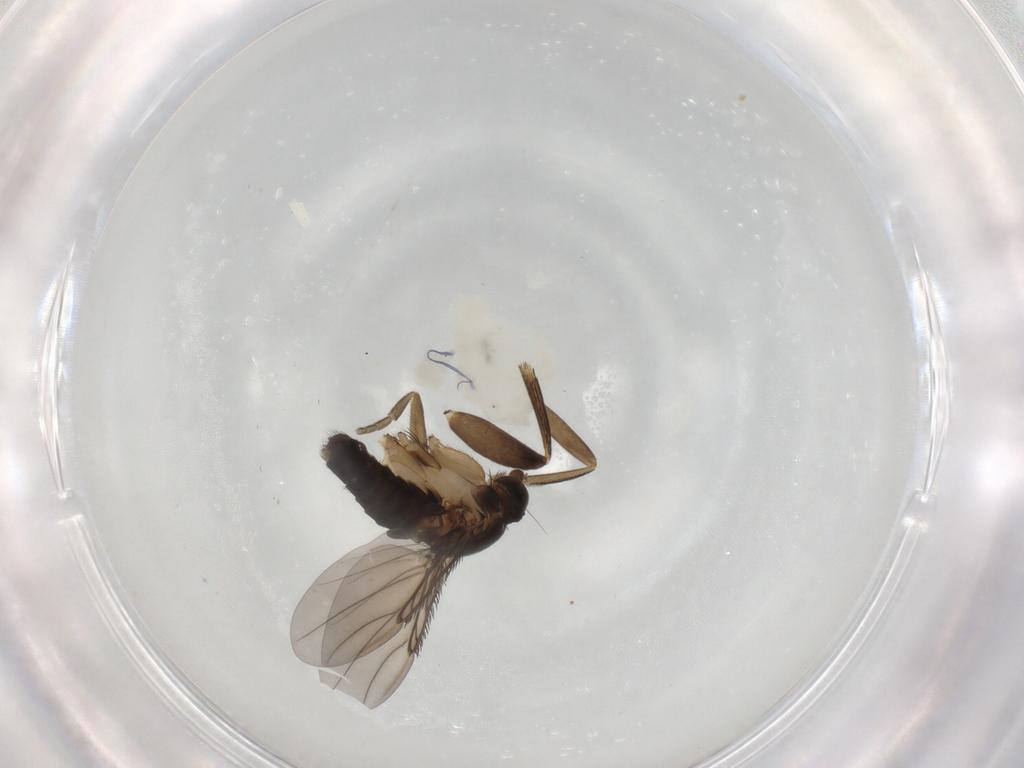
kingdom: Animalia
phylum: Arthropoda
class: Insecta
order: Diptera
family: Phoridae
